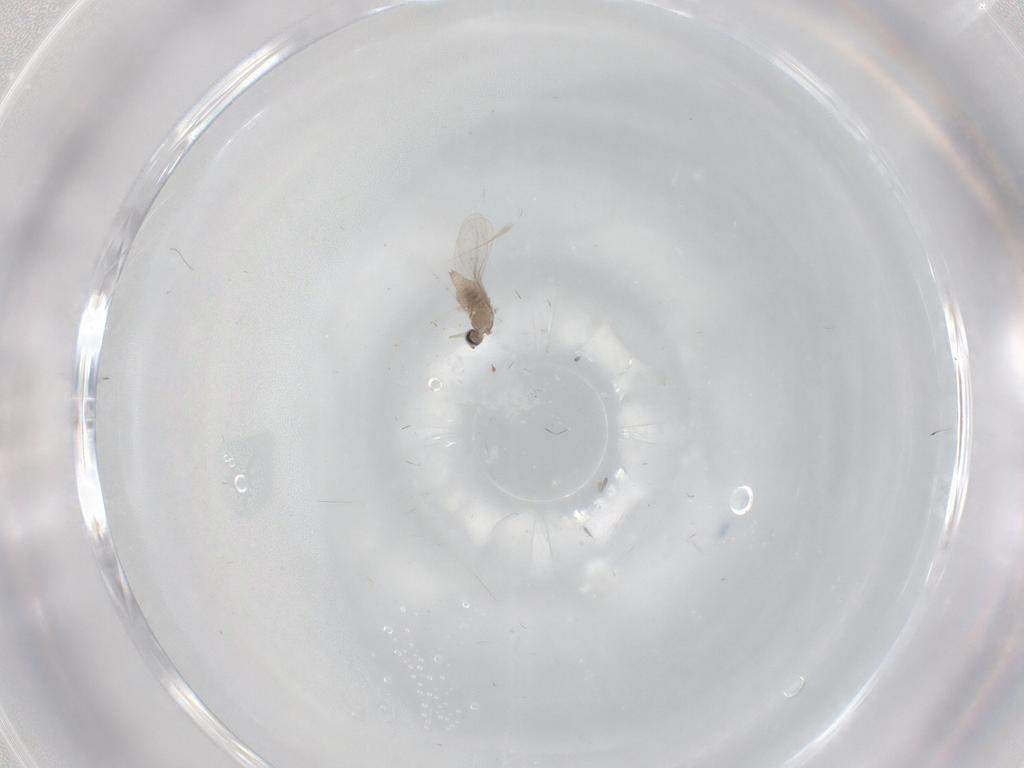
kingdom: Animalia
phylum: Arthropoda
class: Insecta
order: Diptera
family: Cecidomyiidae
